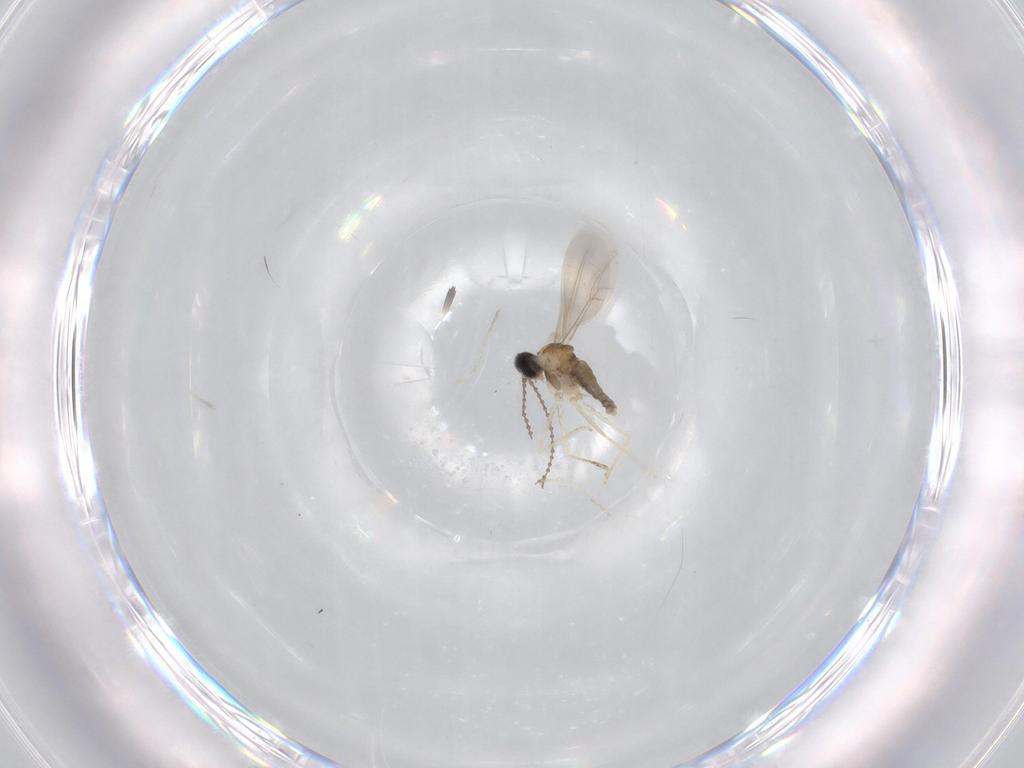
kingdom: Animalia
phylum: Arthropoda
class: Insecta
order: Diptera
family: Cecidomyiidae
